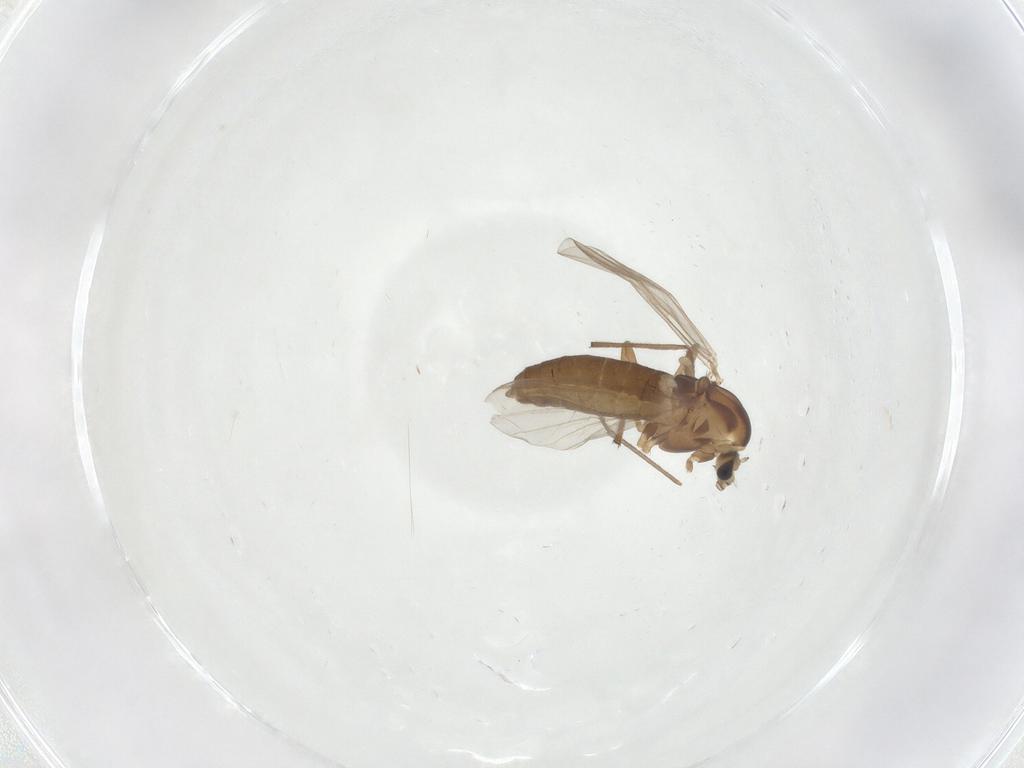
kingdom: Animalia
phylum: Arthropoda
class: Insecta
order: Diptera
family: Chironomidae
